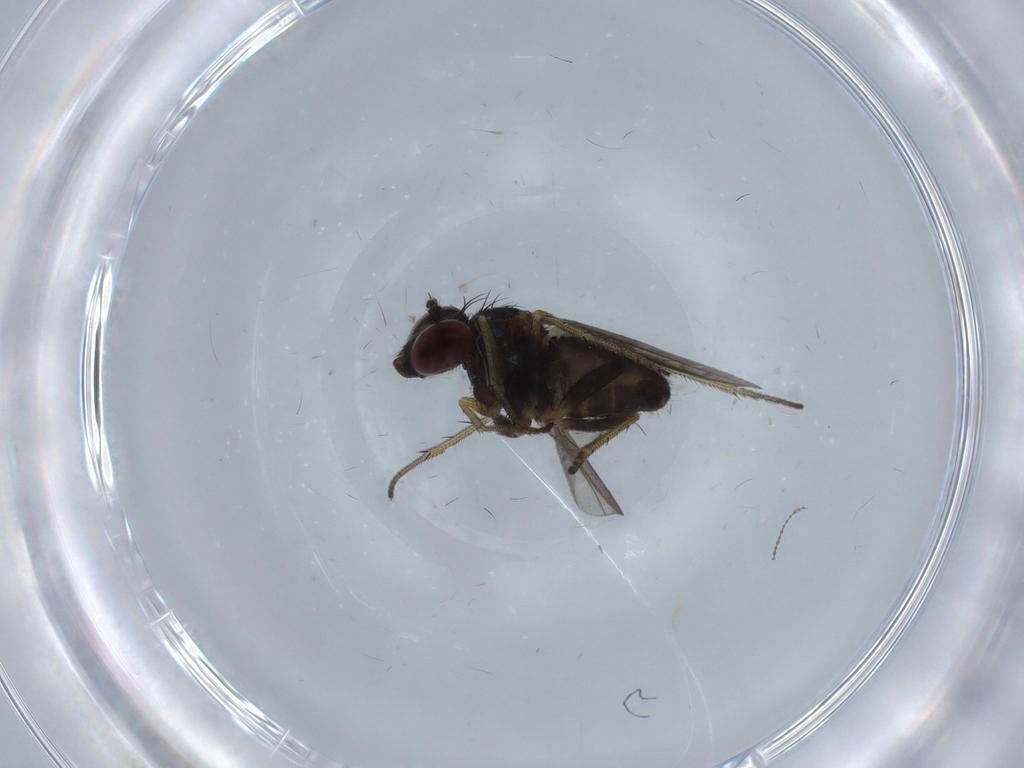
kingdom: Animalia
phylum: Arthropoda
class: Insecta
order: Diptera
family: Cecidomyiidae
